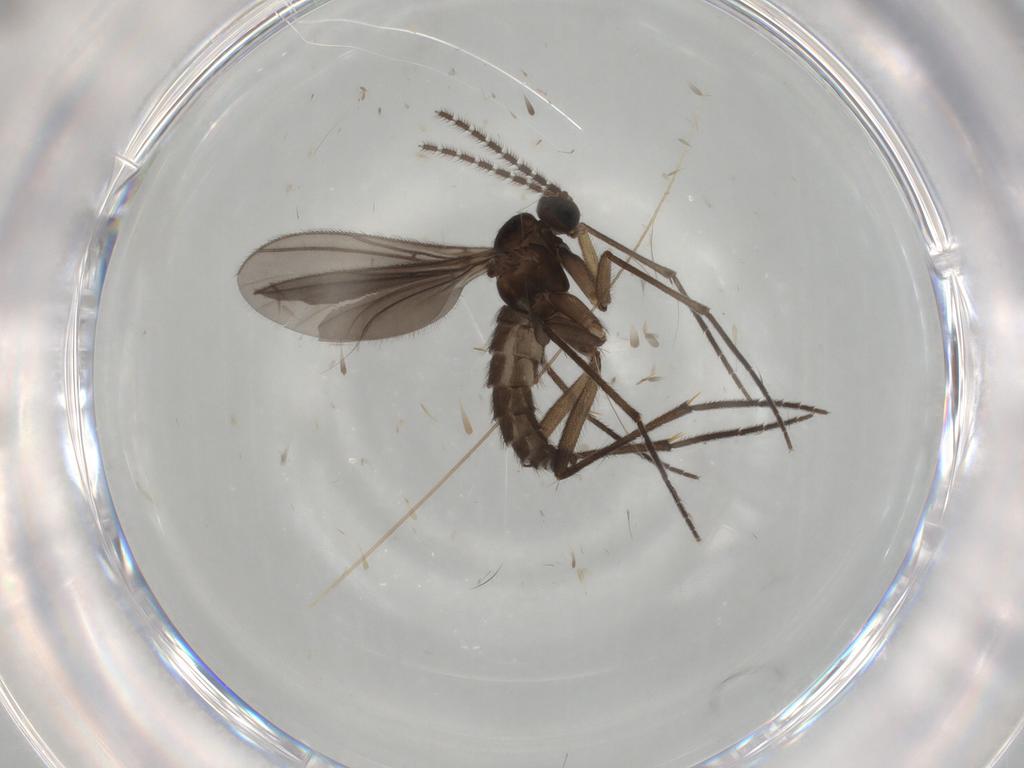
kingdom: Animalia
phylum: Arthropoda
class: Insecta
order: Diptera
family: Sciaridae
